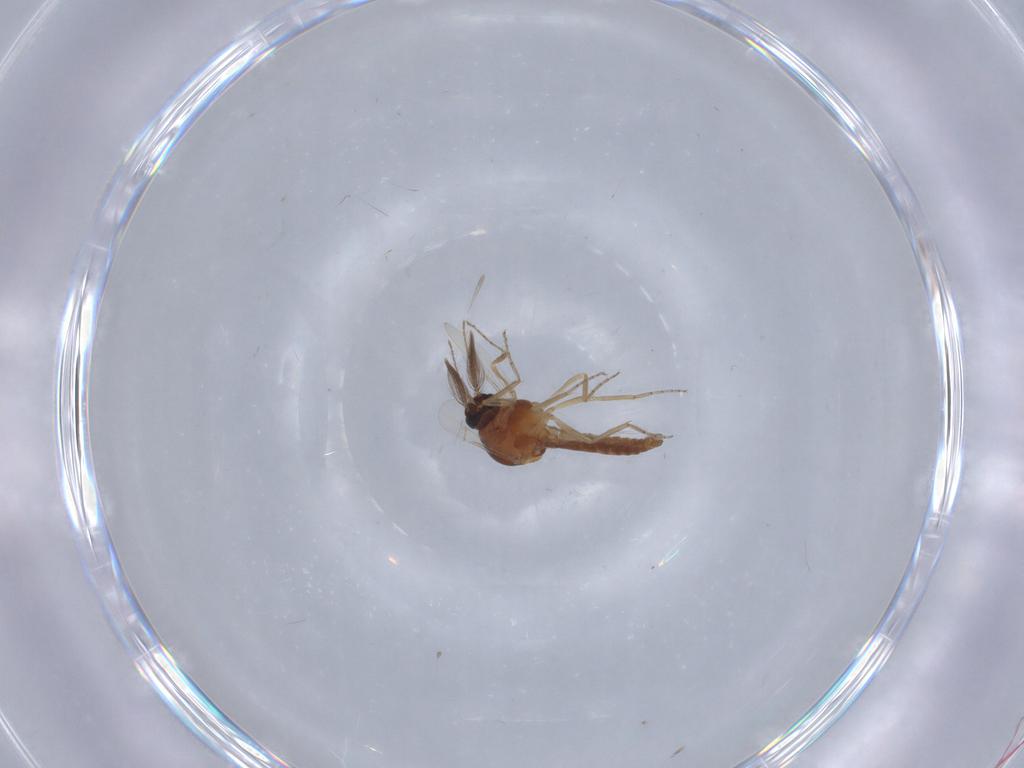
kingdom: Animalia
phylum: Arthropoda
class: Insecta
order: Diptera
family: Ceratopogonidae
